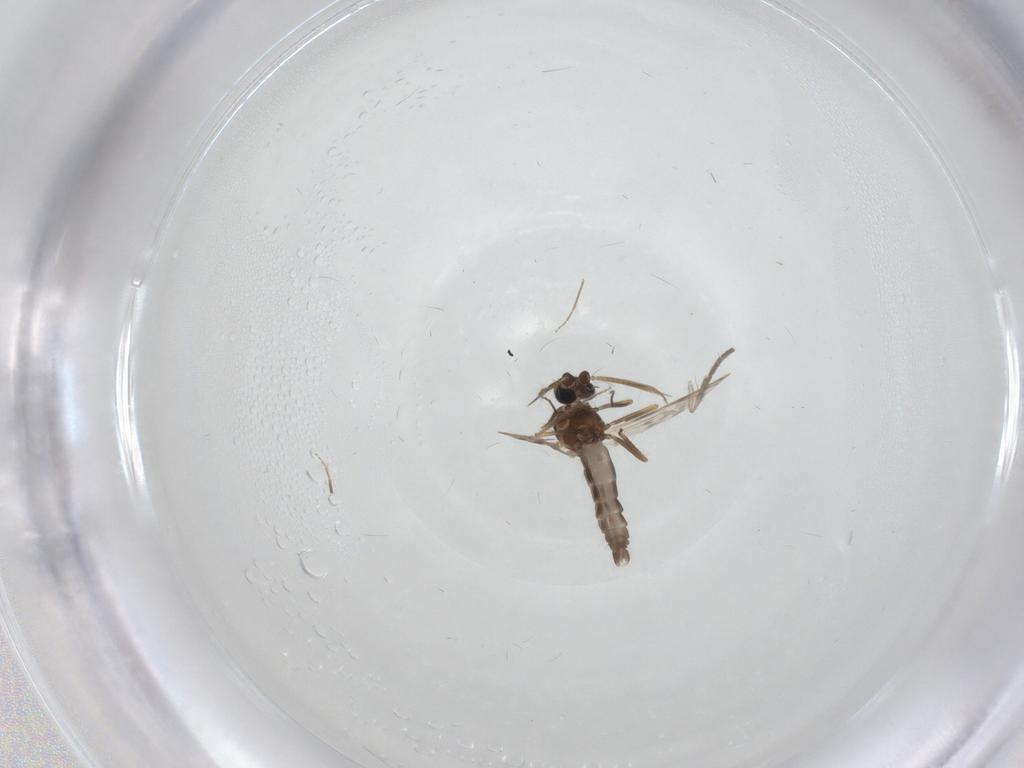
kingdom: Animalia
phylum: Arthropoda
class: Insecta
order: Diptera
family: Ceratopogonidae
